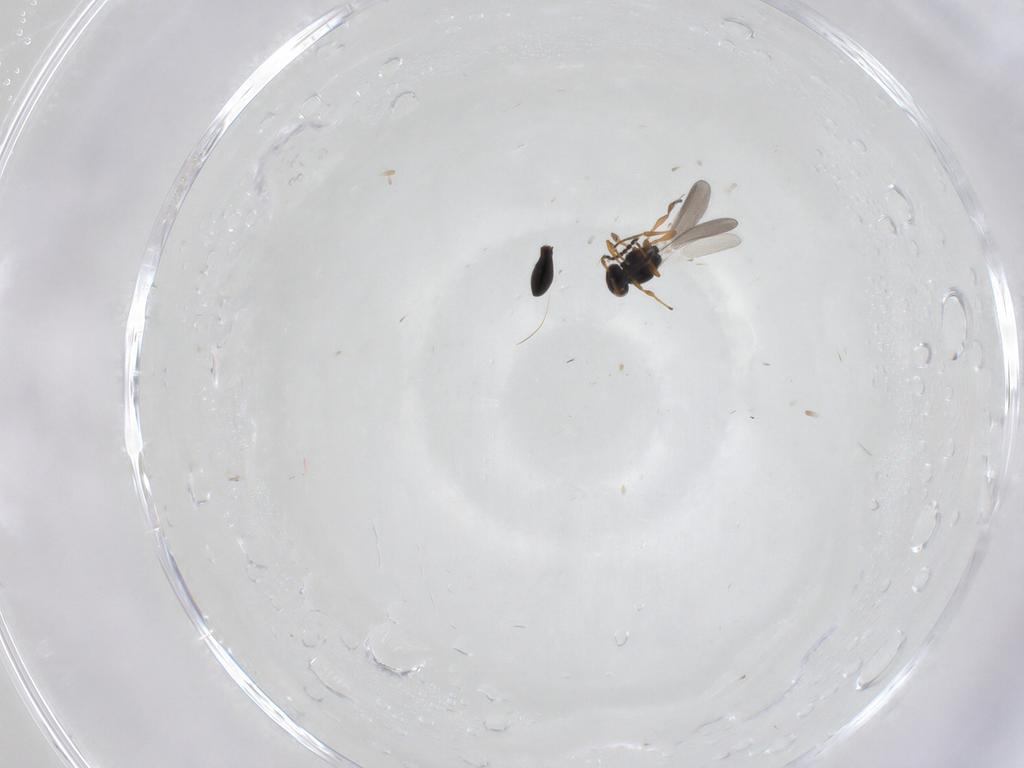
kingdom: Animalia
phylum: Arthropoda
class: Insecta
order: Hymenoptera
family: Platygastridae
